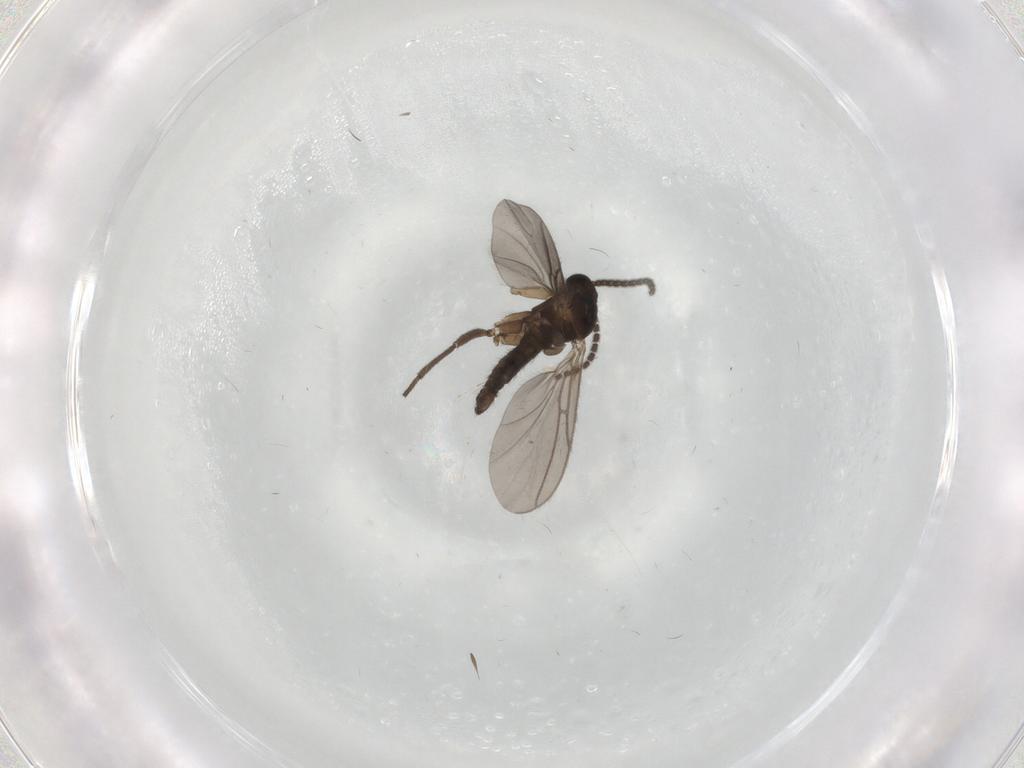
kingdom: Animalia
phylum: Arthropoda
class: Insecta
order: Diptera
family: Sciaridae
